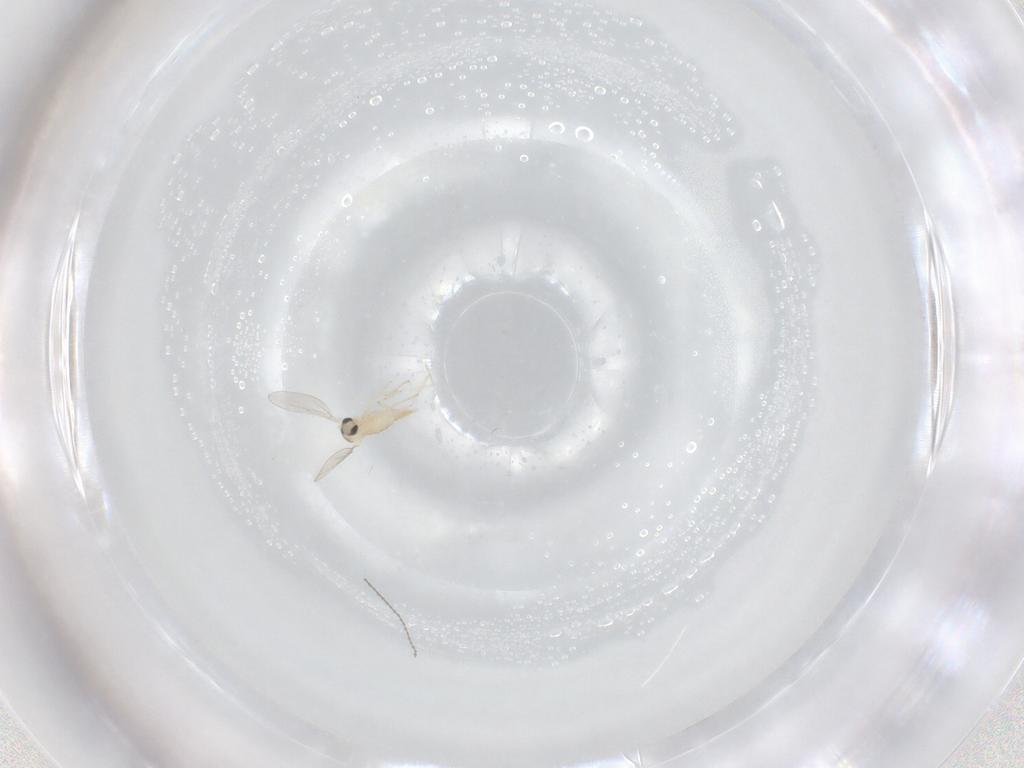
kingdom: Animalia
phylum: Arthropoda
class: Insecta
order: Diptera
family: Cecidomyiidae
